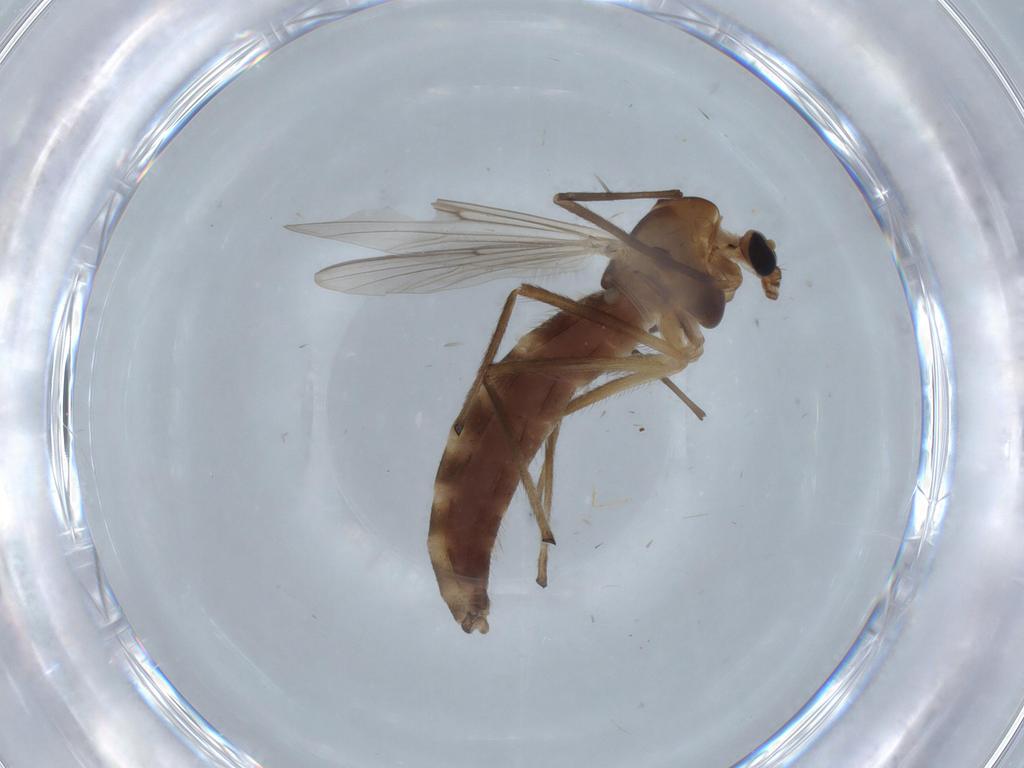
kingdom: Animalia
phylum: Arthropoda
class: Insecta
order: Diptera
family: Chironomidae
